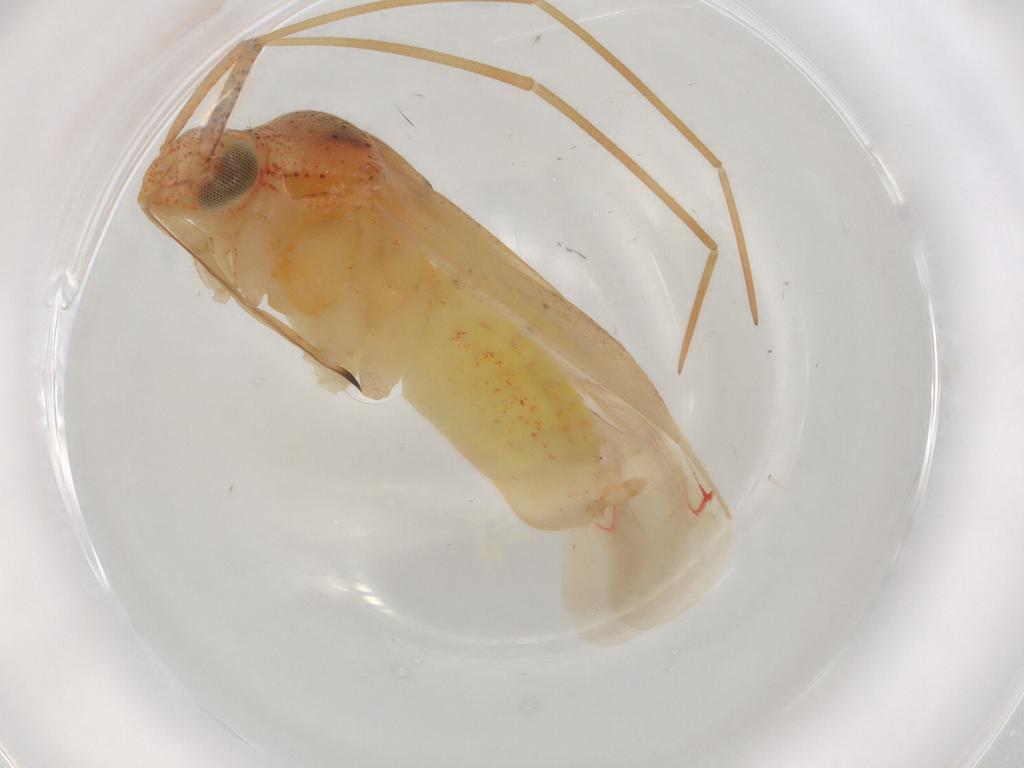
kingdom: Animalia
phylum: Arthropoda
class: Insecta
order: Hemiptera
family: Miridae
